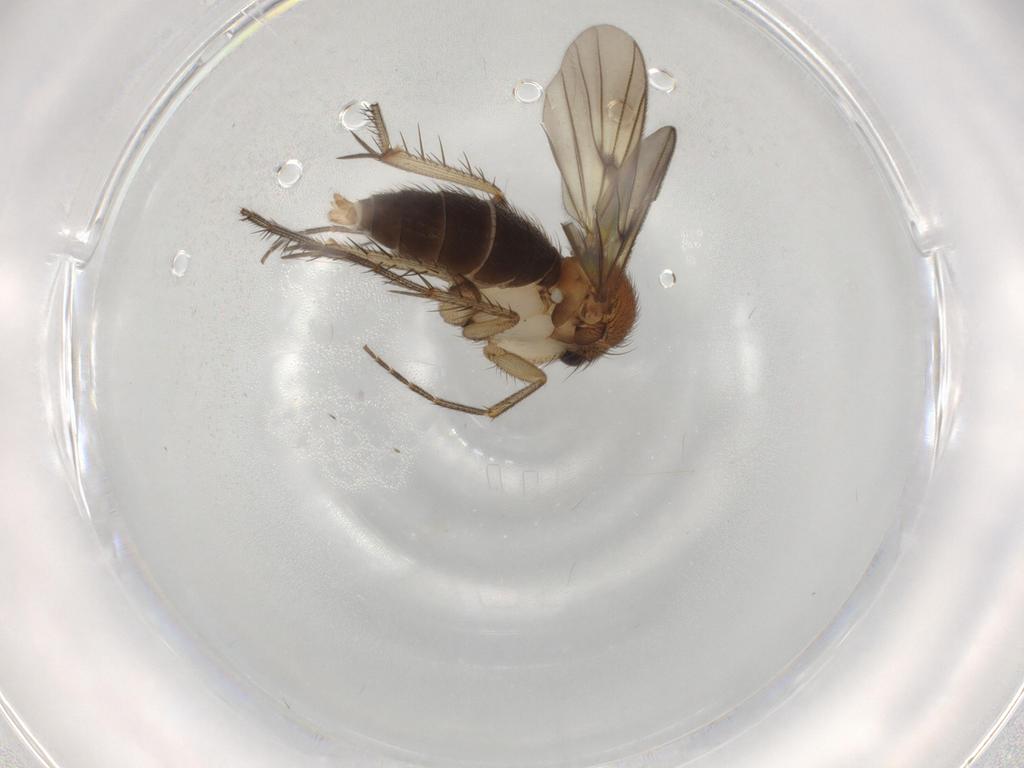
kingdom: Animalia
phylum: Arthropoda
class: Insecta
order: Diptera
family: Mycetophilidae
